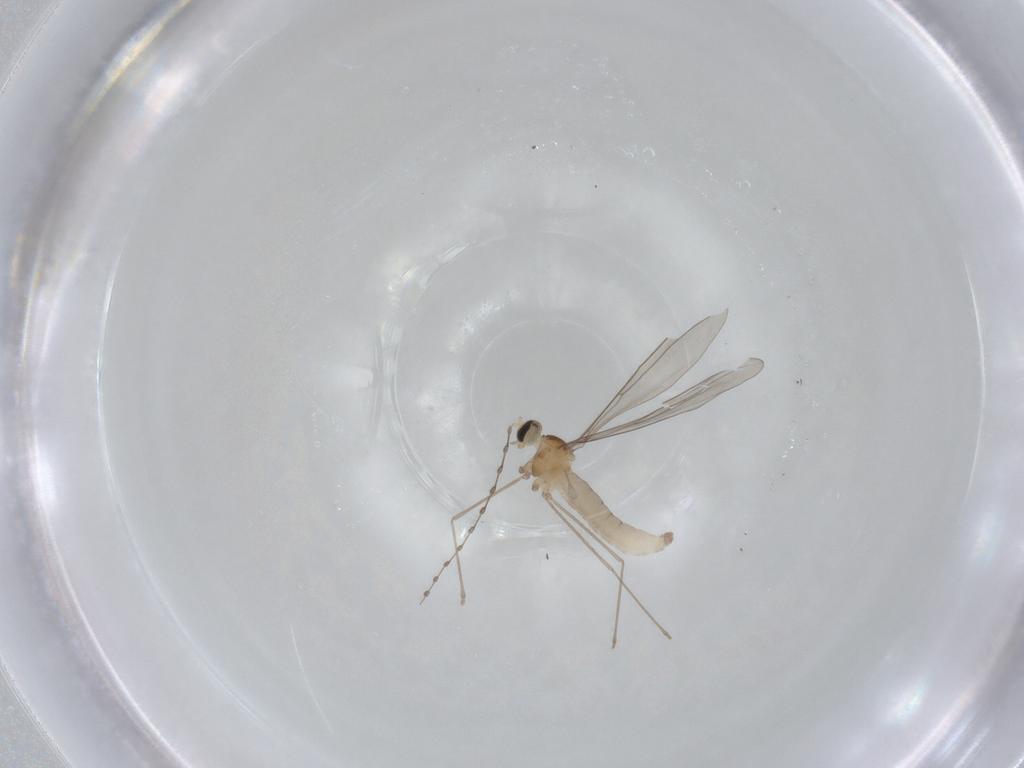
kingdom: Animalia
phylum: Arthropoda
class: Insecta
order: Diptera
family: Cecidomyiidae
